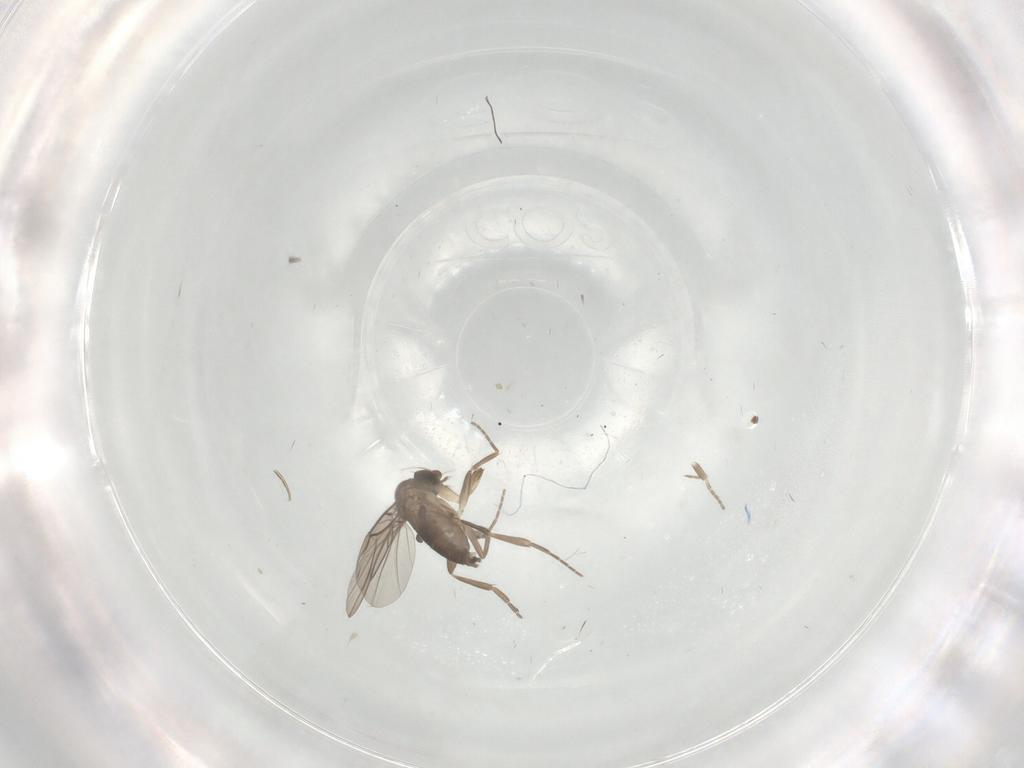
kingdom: Animalia
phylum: Arthropoda
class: Insecta
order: Diptera
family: Phoridae
